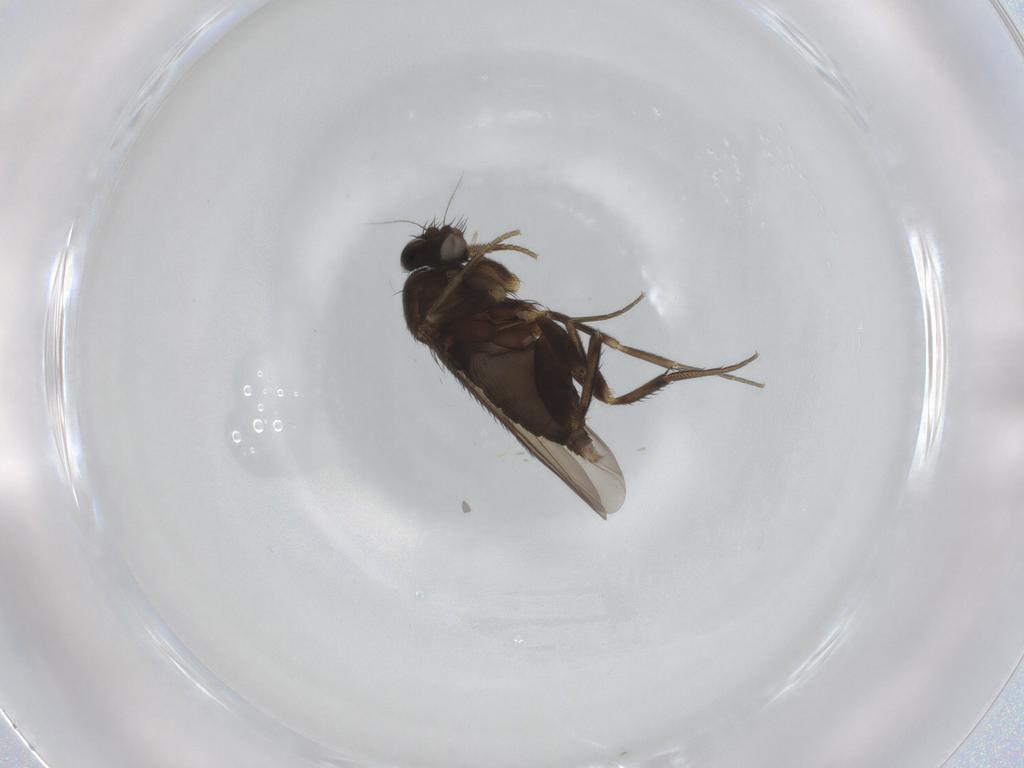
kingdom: Animalia
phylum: Arthropoda
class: Insecta
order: Diptera
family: Phoridae
